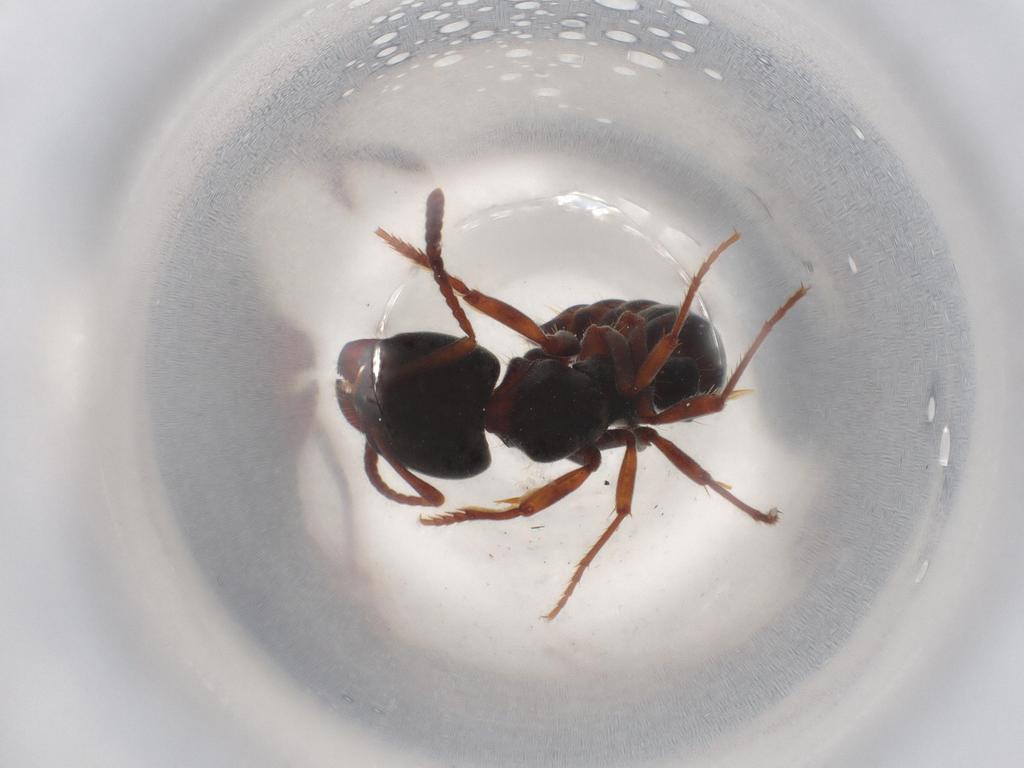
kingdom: Animalia
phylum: Arthropoda
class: Insecta
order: Hymenoptera
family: Formicidae
